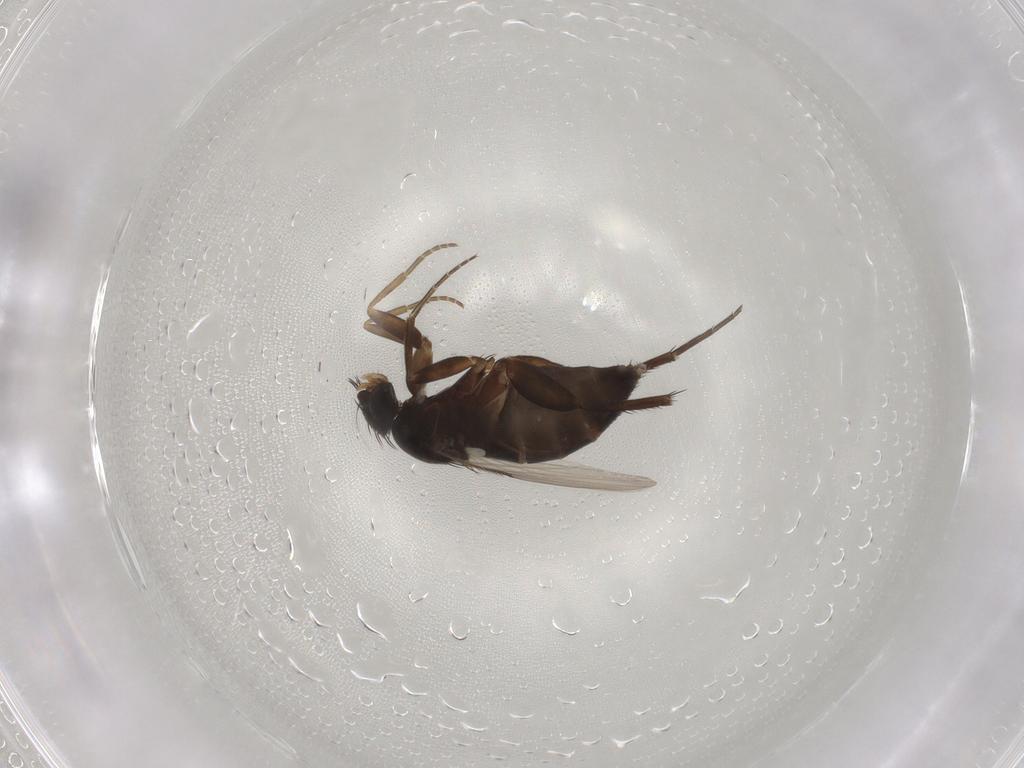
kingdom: Animalia
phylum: Arthropoda
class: Insecta
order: Diptera
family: Phoridae
